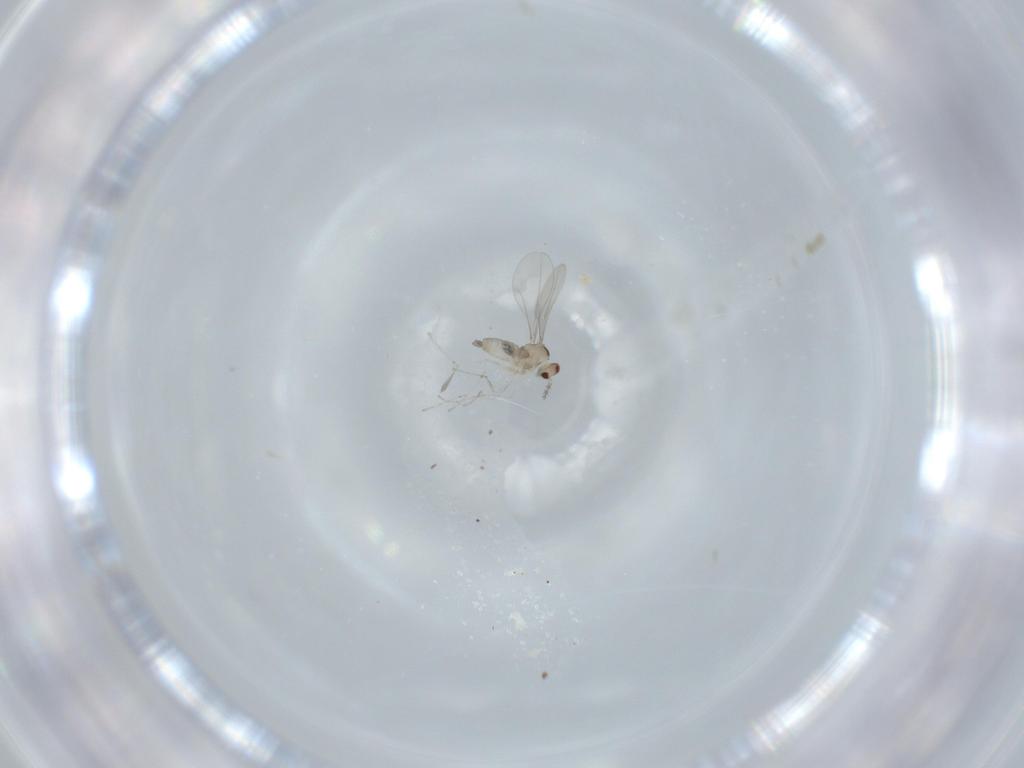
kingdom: Animalia
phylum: Arthropoda
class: Insecta
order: Diptera
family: Cecidomyiidae
